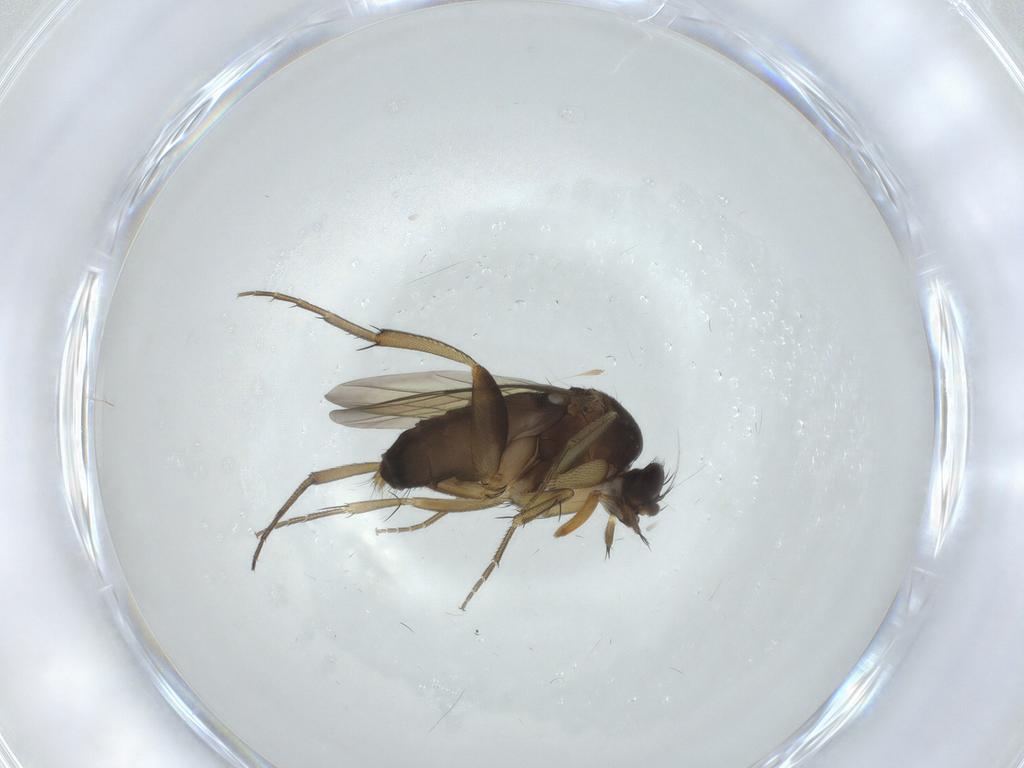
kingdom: Animalia
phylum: Arthropoda
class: Insecta
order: Diptera
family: Phoridae
